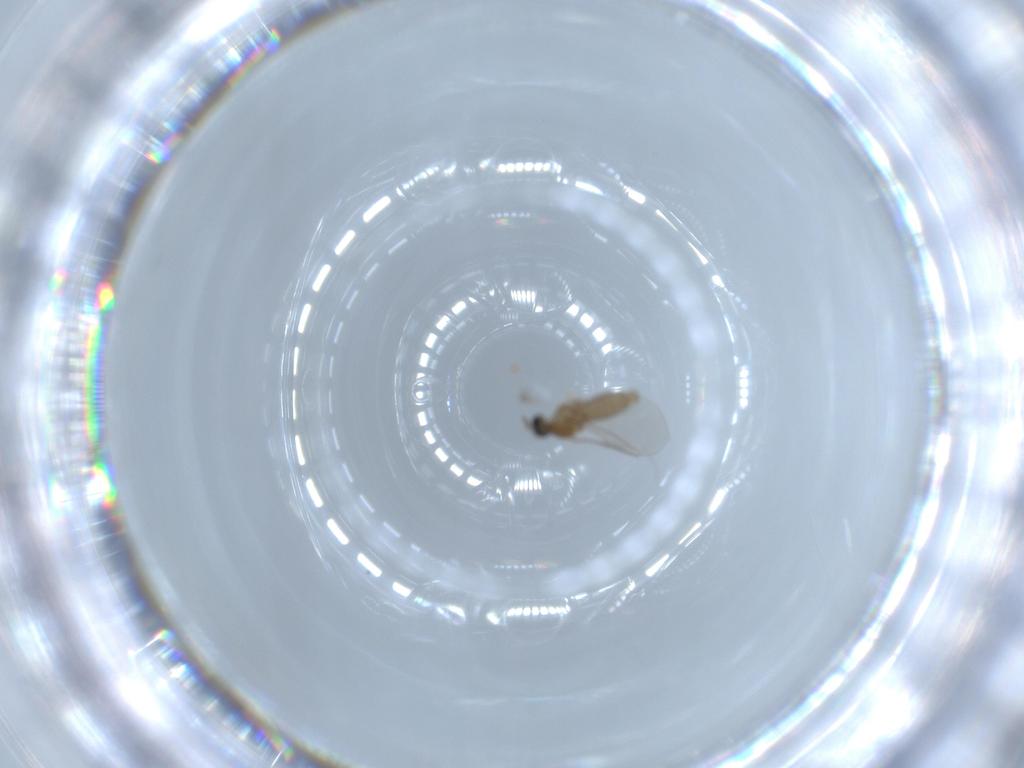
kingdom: Animalia
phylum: Arthropoda
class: Insecta
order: Diptera
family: Cecidomyiidae
